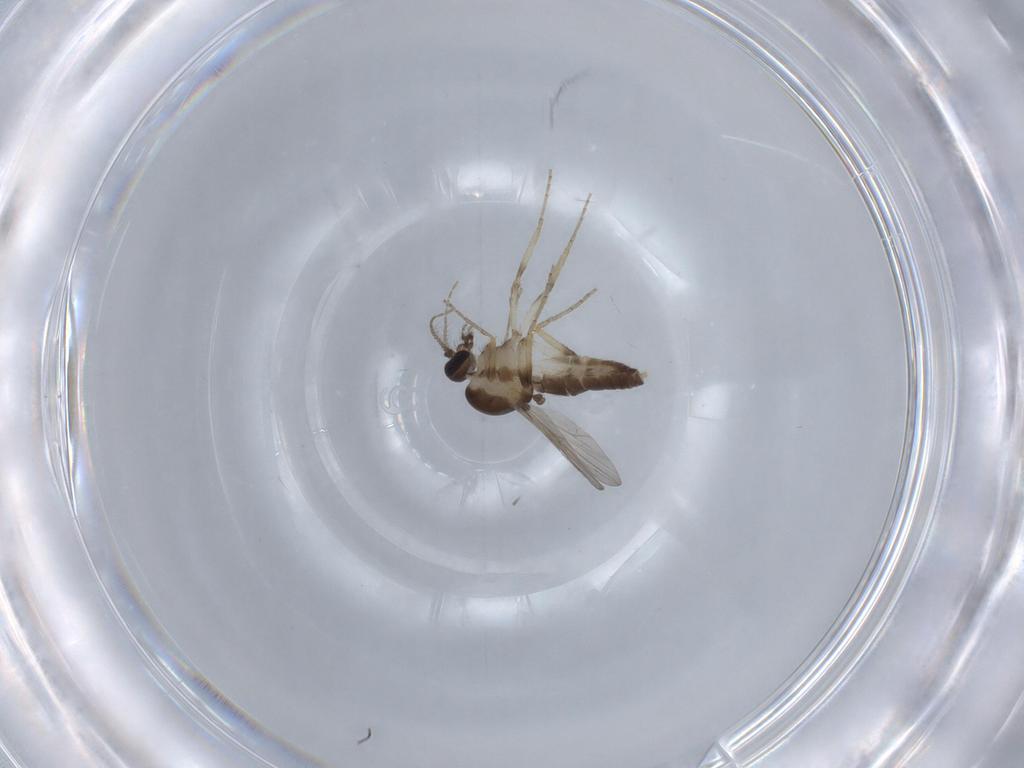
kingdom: Animalia
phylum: Arthropoda
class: Insecta
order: Diptera
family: Ceratopogonidae
